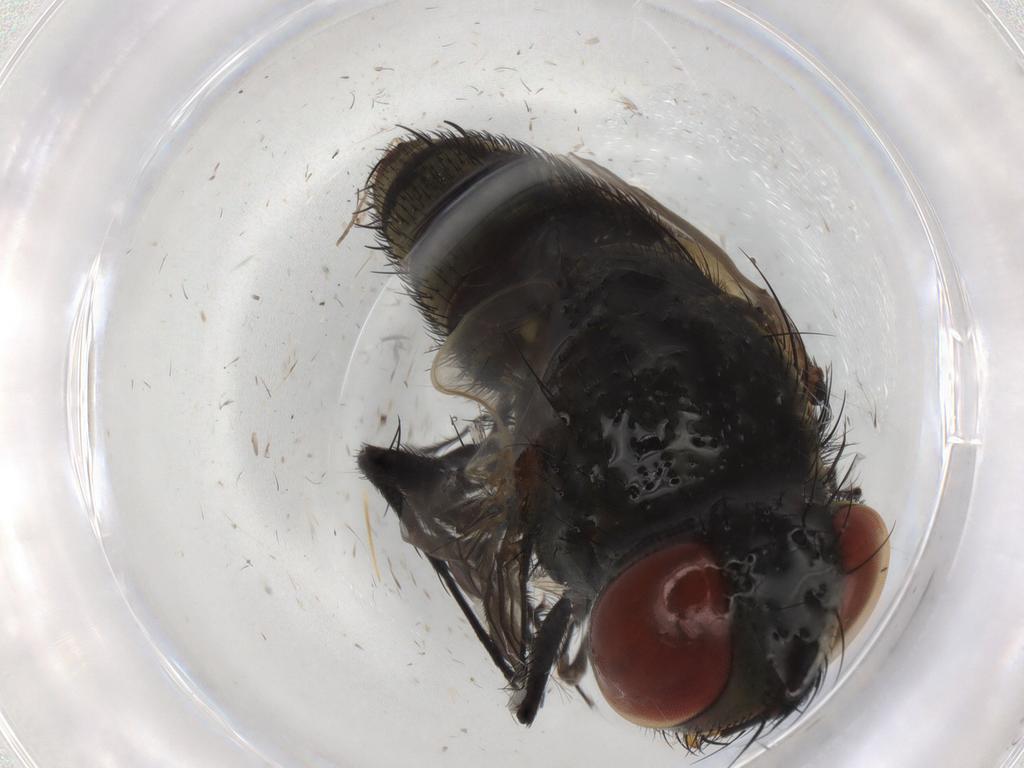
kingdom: Animalia
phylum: Arthropoda
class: Insecta
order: Diptera
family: Sarcophagidae
